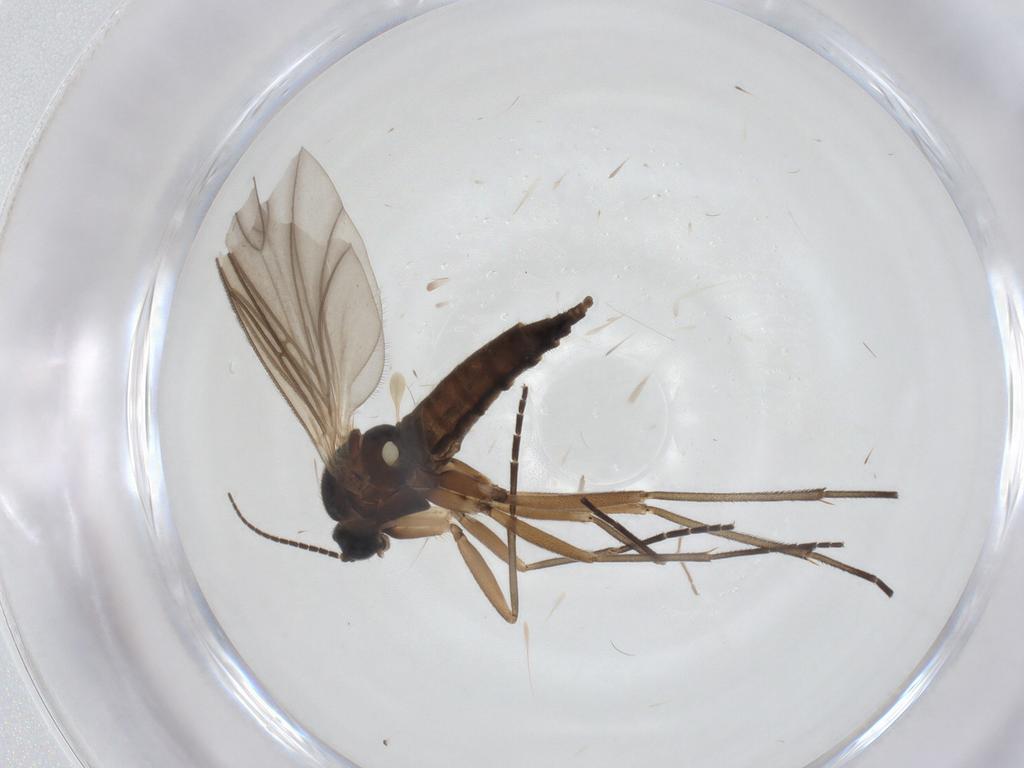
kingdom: Animalia
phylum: Arthropoda
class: Insecta
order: Diptera
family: Sciaridae
